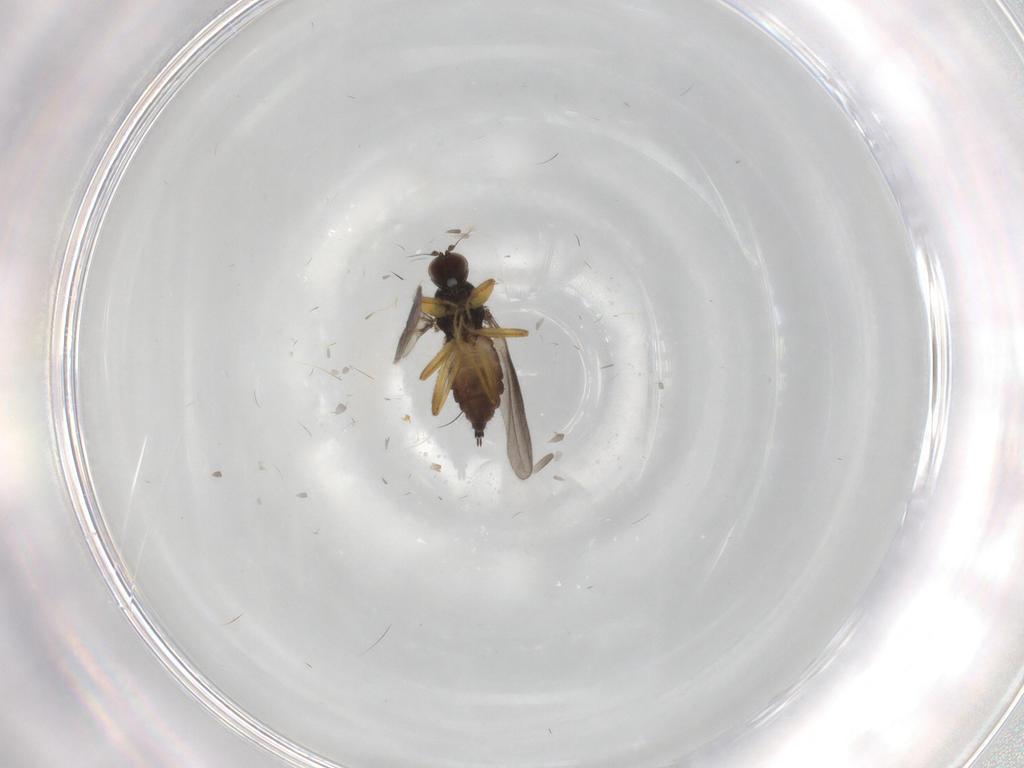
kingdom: Animalia
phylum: Arthropoda
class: Insecta
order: Diptera
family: Hybotidae
